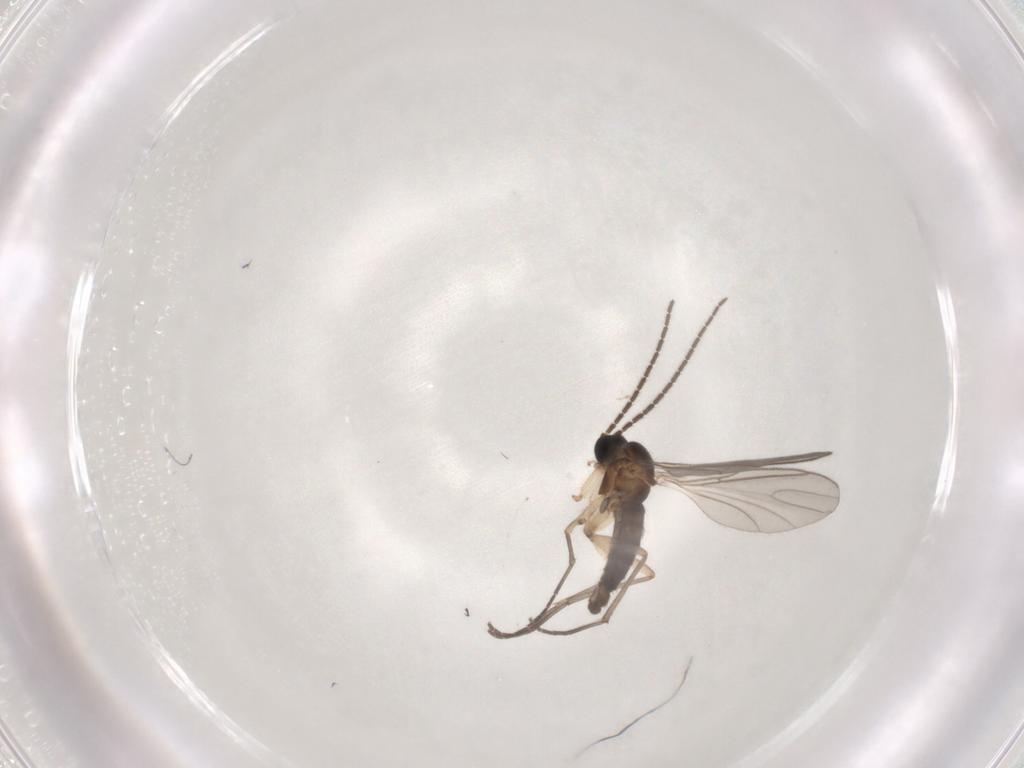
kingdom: Animalia
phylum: Arthropoda
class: Insecta
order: Diptera
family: Sciaridae
